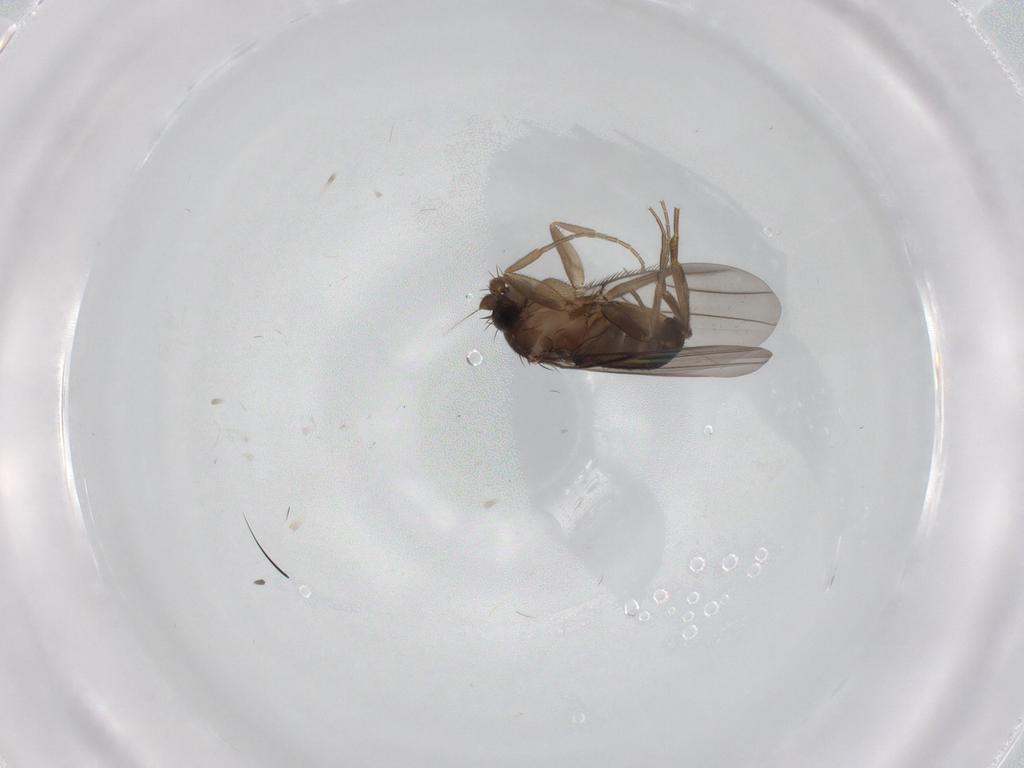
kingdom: Animalia
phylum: Arthropoda
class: Insecta
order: Diptera
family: Phoridae
